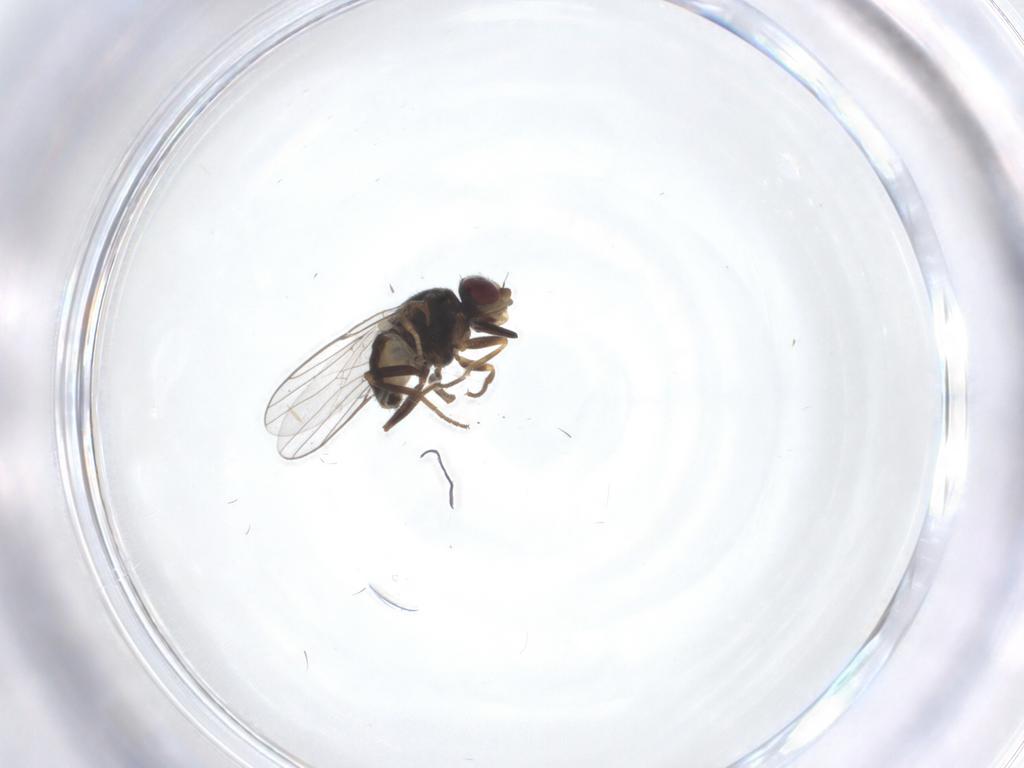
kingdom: Animalia
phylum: Arthropoda
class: Insecta
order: Diptera
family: Chloropidae
